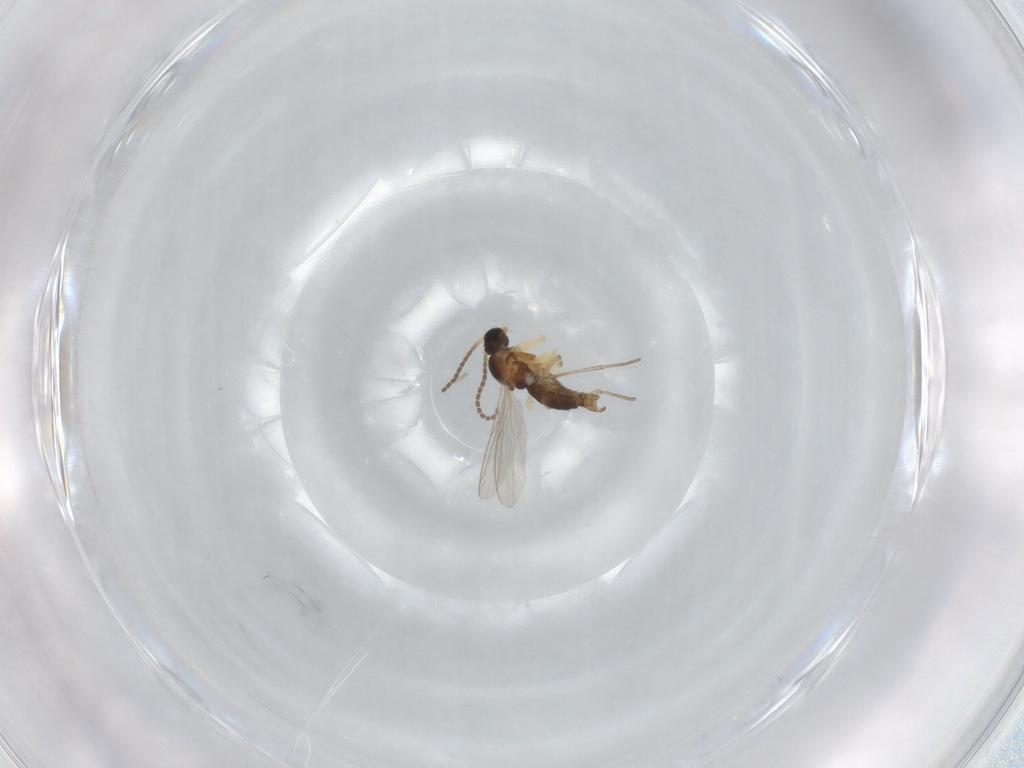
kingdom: Animalia
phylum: Arthropoda
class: Insecta
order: Diptera
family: Sciaridae
